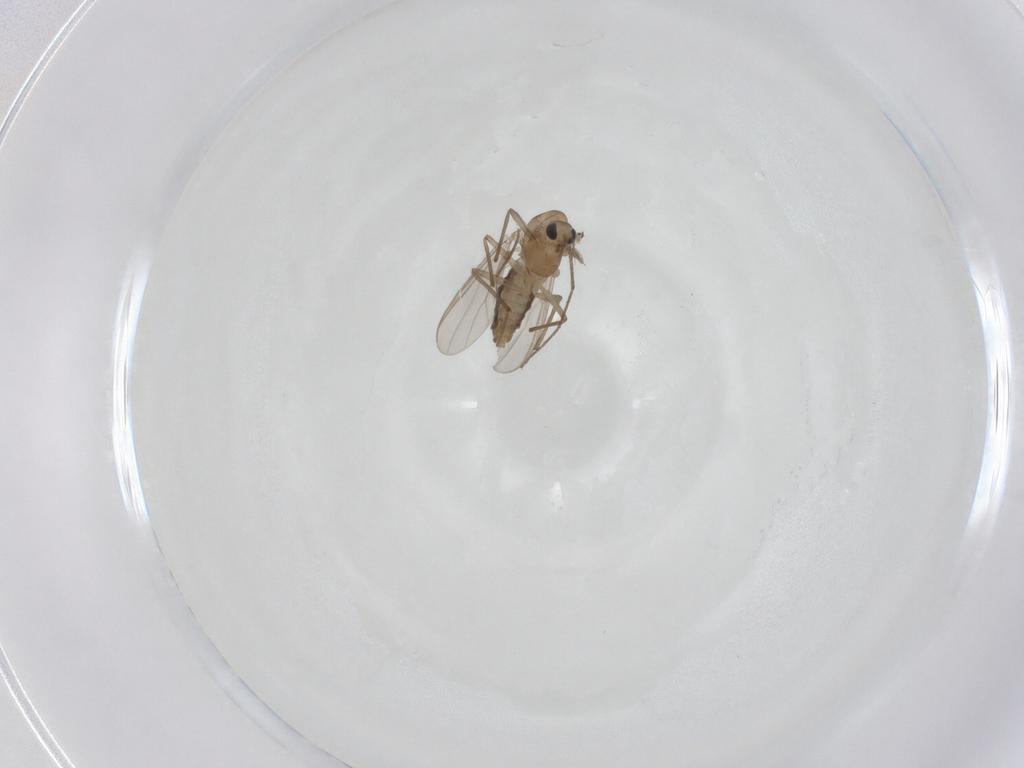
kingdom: Animalia
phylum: Arthropoda
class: Insecta
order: Diptera
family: Chironomidae
